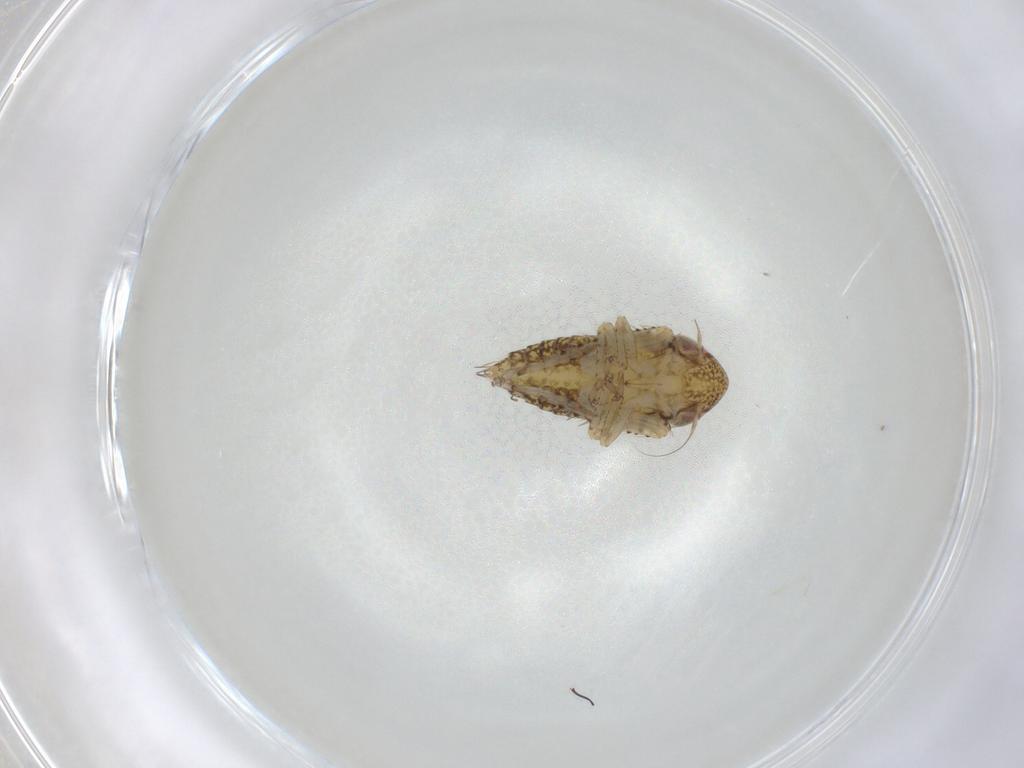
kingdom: Animalia
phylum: Arthropoda
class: Insecta
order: Hemiptera
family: Cicadellidae
